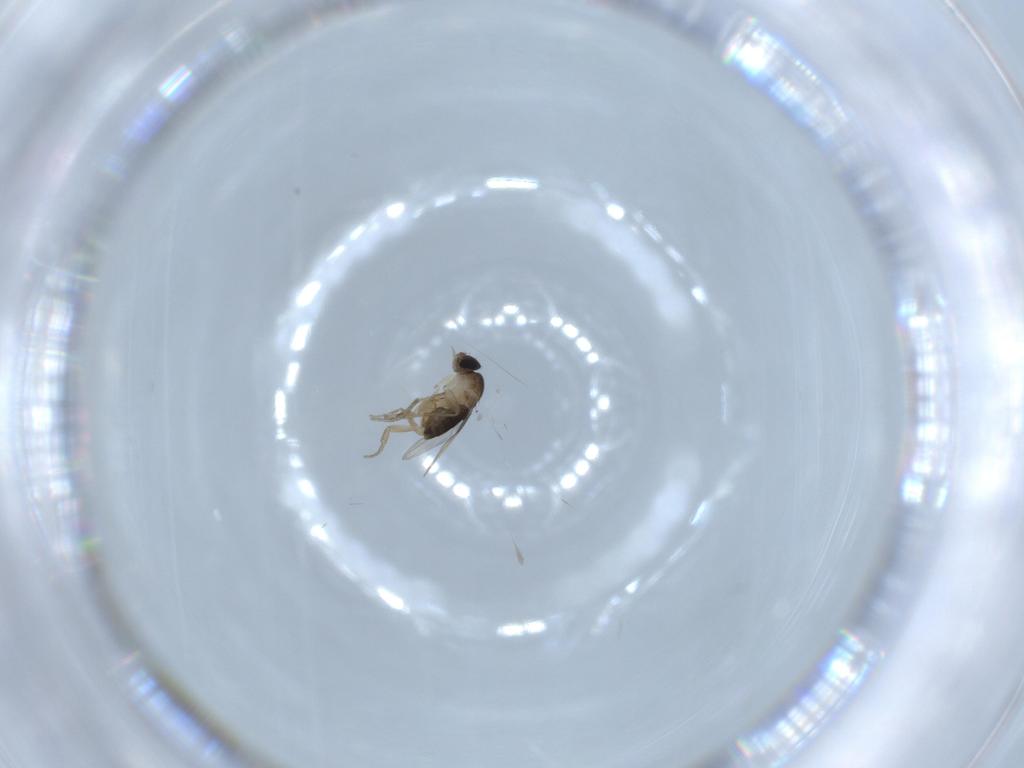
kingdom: Animalia
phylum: Arthropoda
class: Insecta
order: Diptera
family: Phoridae
